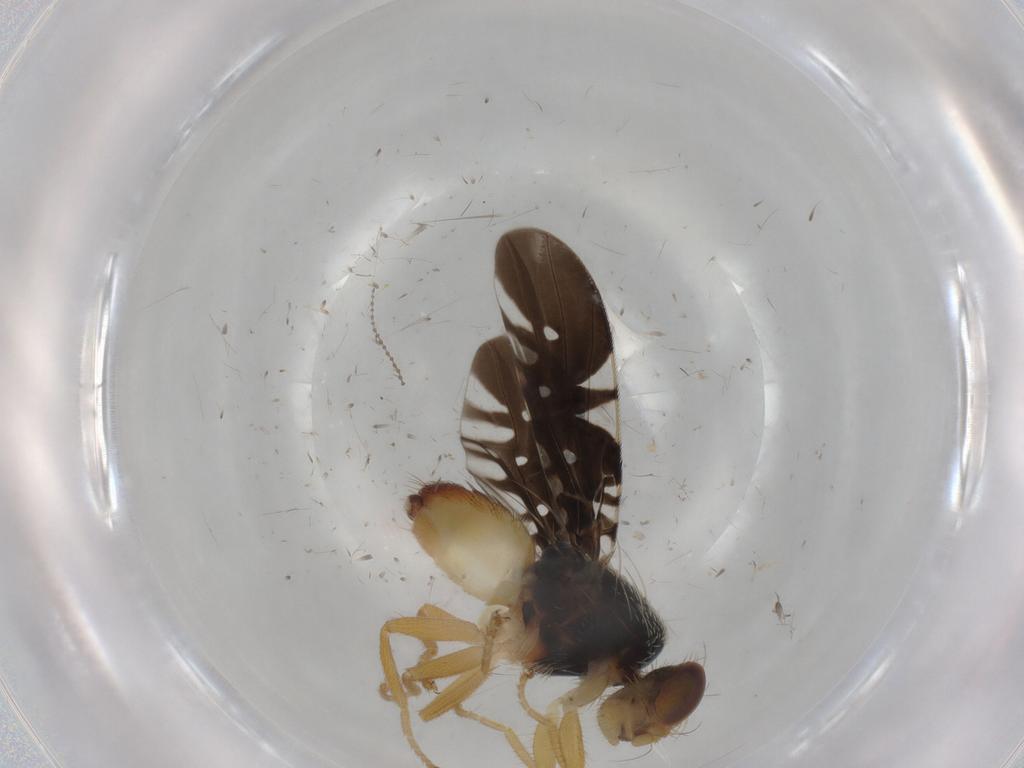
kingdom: Animalia
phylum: Arthropoda
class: Insecta
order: Diptera
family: Tephritidae
